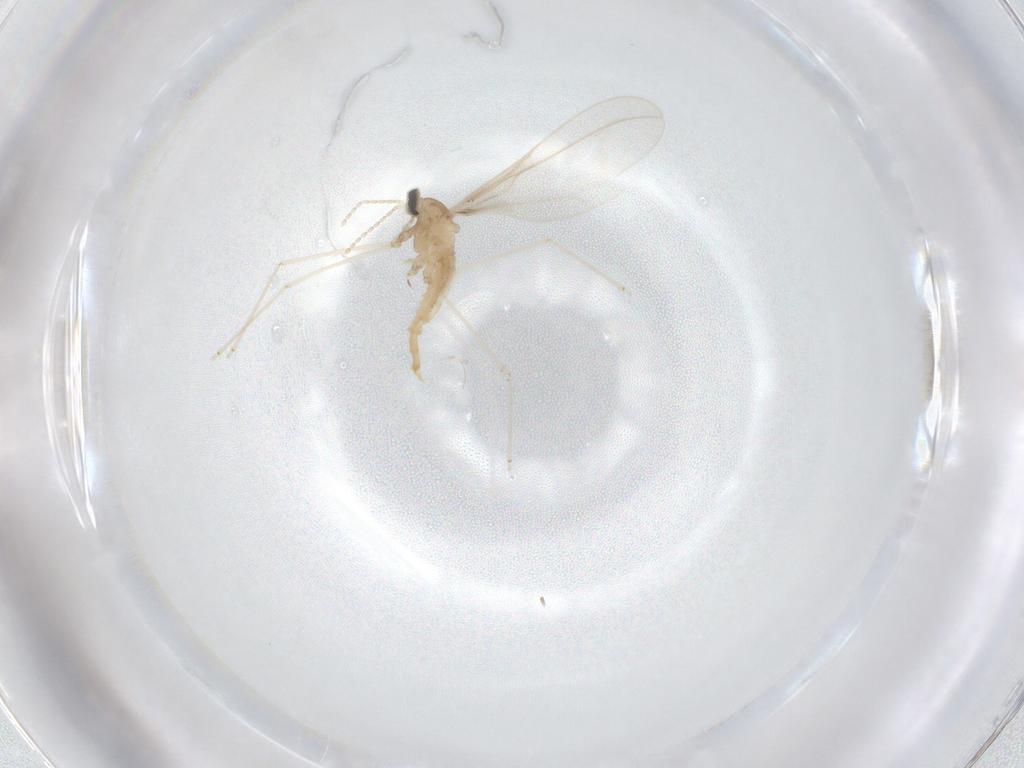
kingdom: Animalia
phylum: Arthropoda
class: Insecta
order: Diptera
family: Cecidomyiidae
